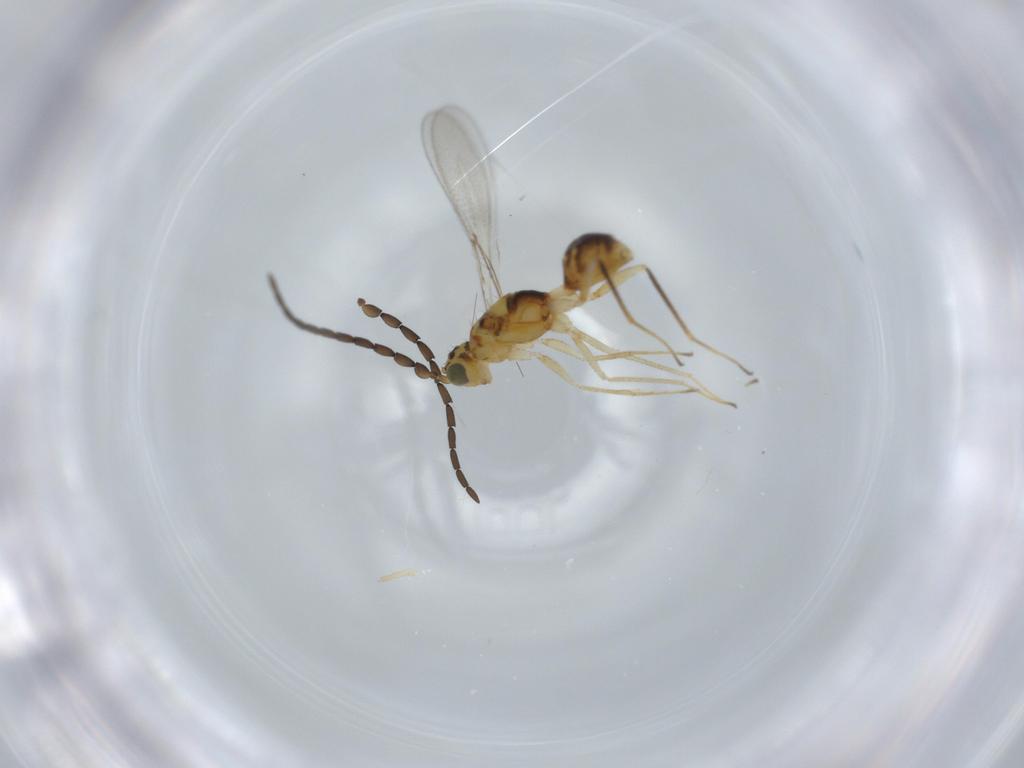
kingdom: Animalia
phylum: Arthropoda
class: Insecta
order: Hymenoptera
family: Mymaridae
